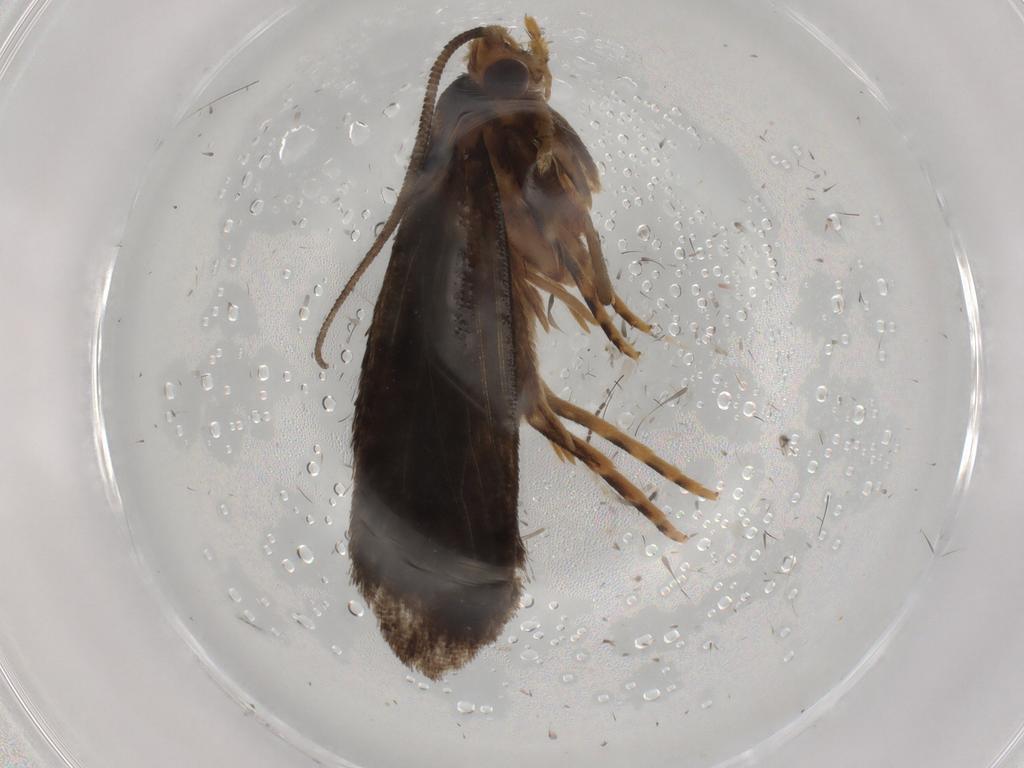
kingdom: Animalia
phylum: Arthropoda
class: Insecta
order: Lepidoptera
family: Tineidae
